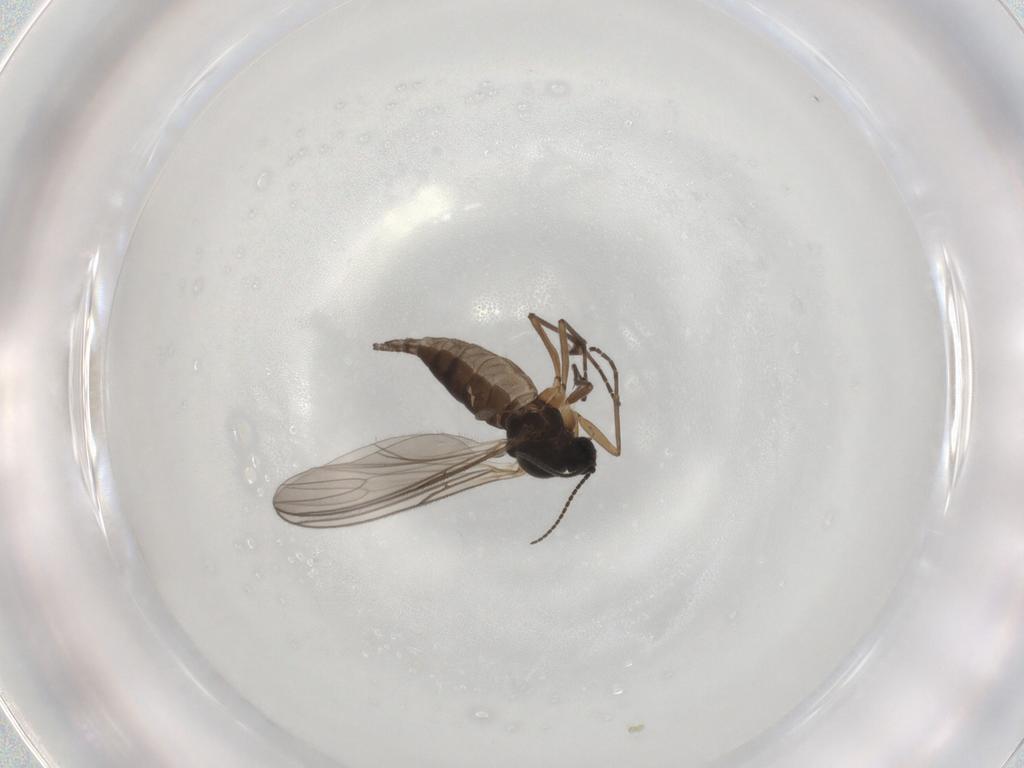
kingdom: Animalia
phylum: Arthropoda
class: Insecta
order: Diptera
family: Sciaridae
